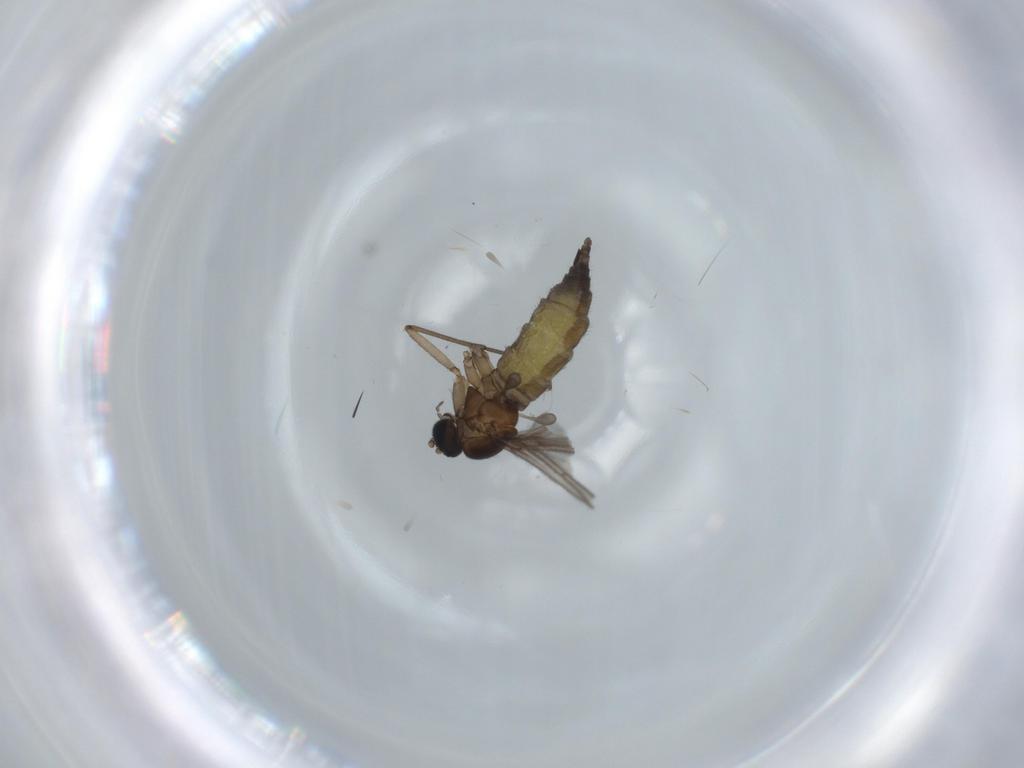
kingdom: Animalia
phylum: Arthropoda
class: Insecta
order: Diptera
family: Sciaridae
